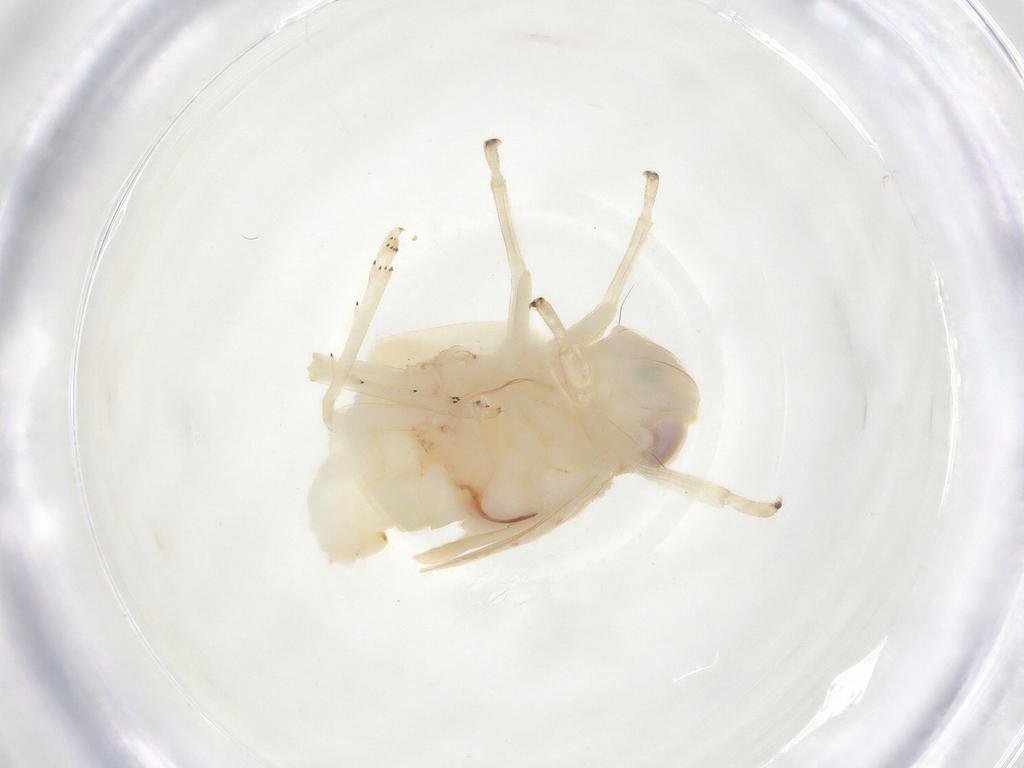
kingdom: Animalia
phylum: Arthropoda
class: Insecta
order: Hemiptera
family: Nogodinidae
